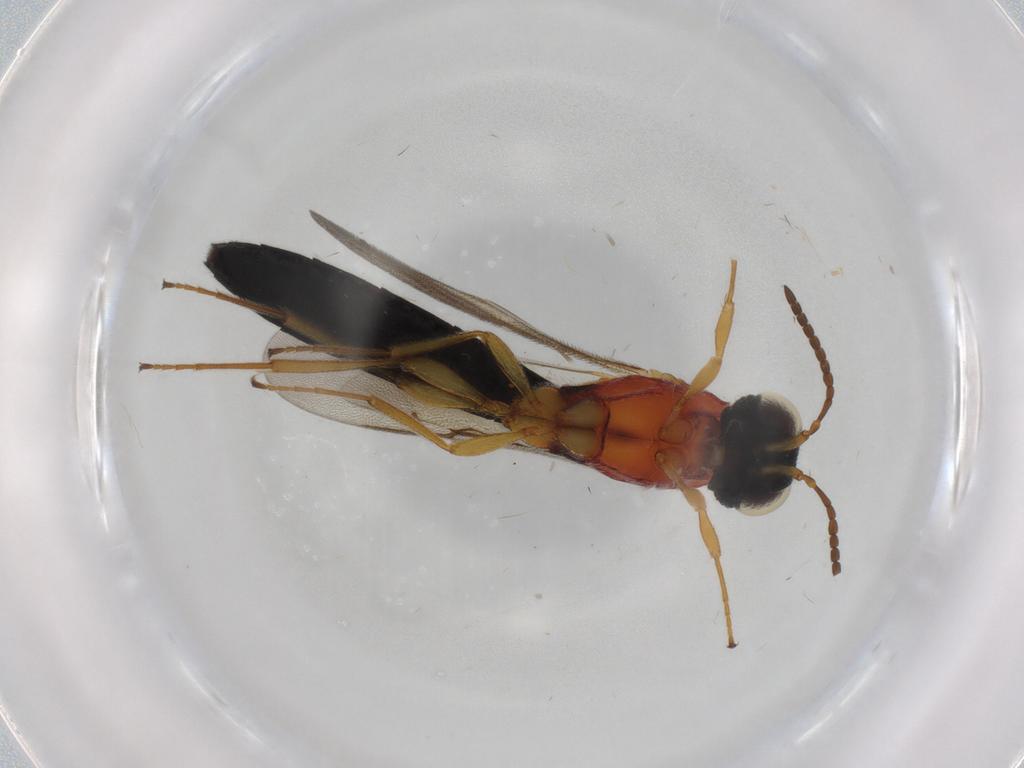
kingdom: Animalia
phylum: Arthropoda
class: Insecta
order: Hymenoptera
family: Scelionidae
